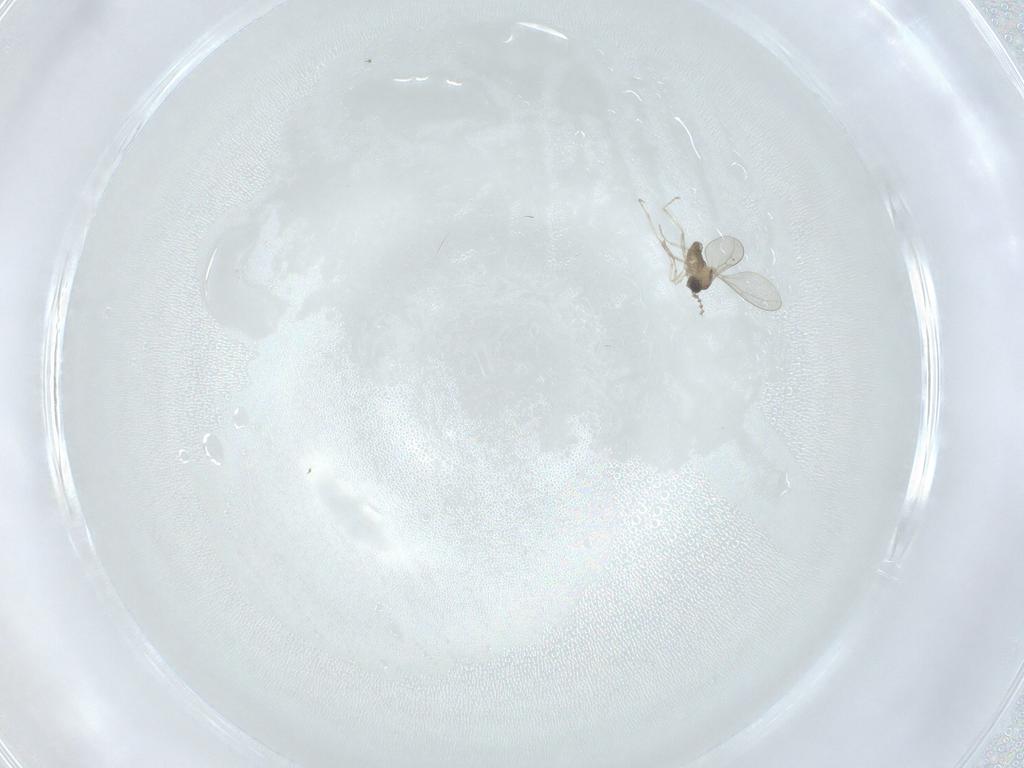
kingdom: Animalia
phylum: Arthropoda
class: Insecta
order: Diptera
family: Cecidomyiidae
